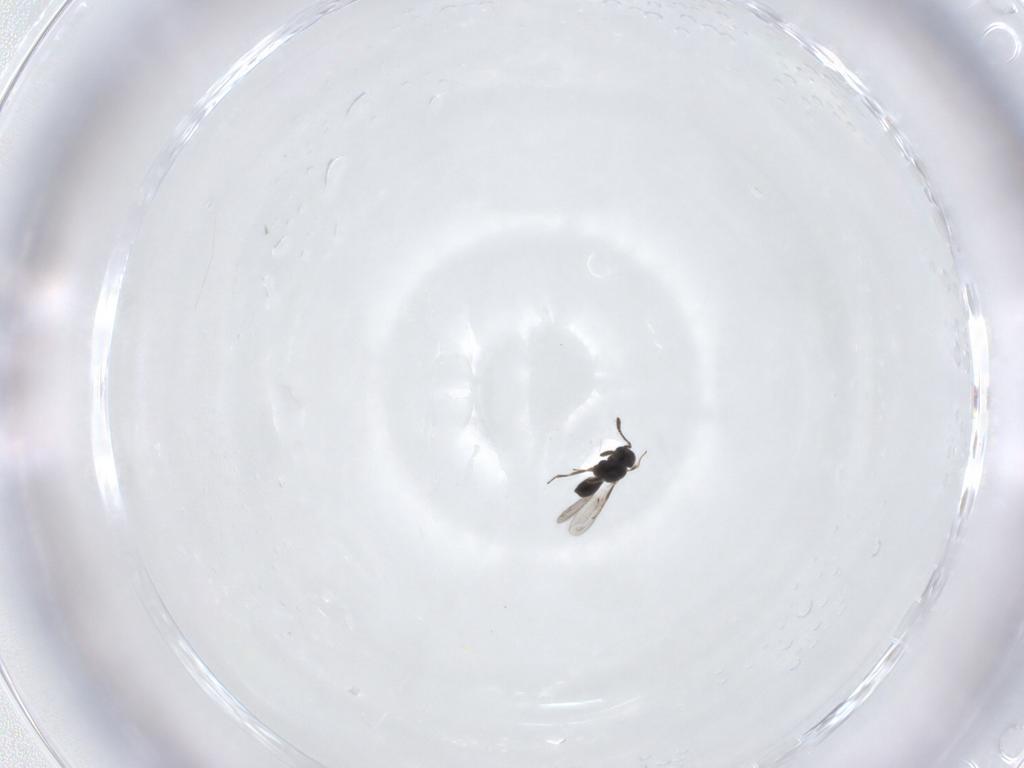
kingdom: Animalia
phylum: Arthropoda
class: Insecta
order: Hymenoptera
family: Scelionidae
